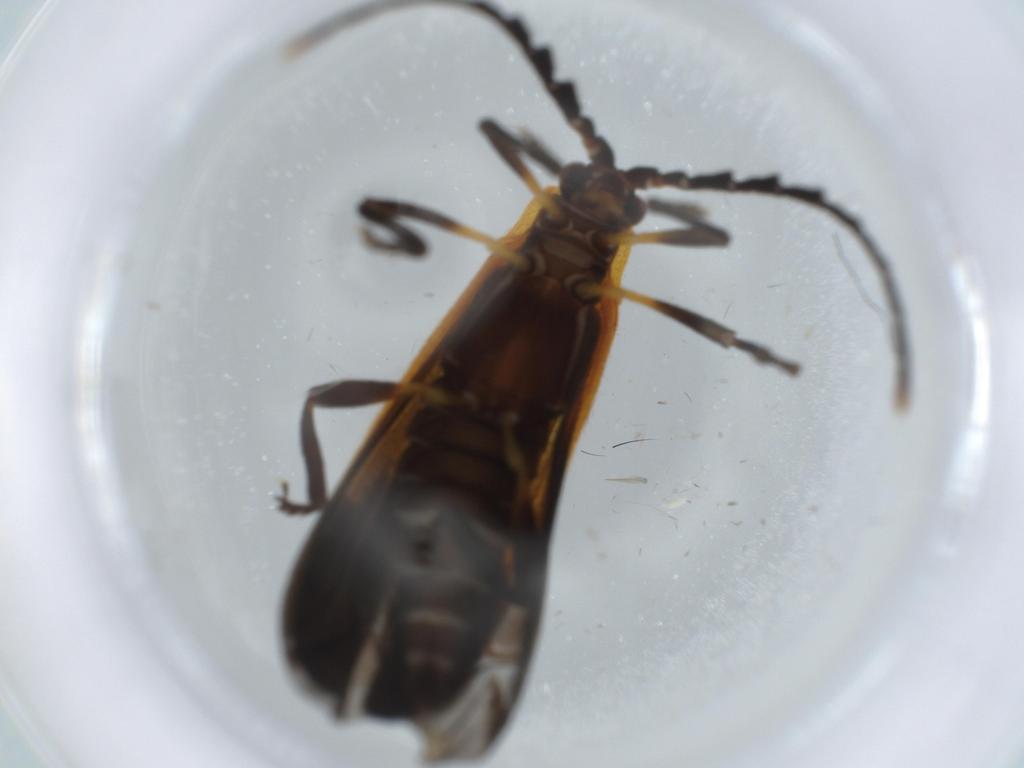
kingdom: Animalia
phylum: Arthropoda
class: Insecta
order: Coleoptera
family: Lycidae
